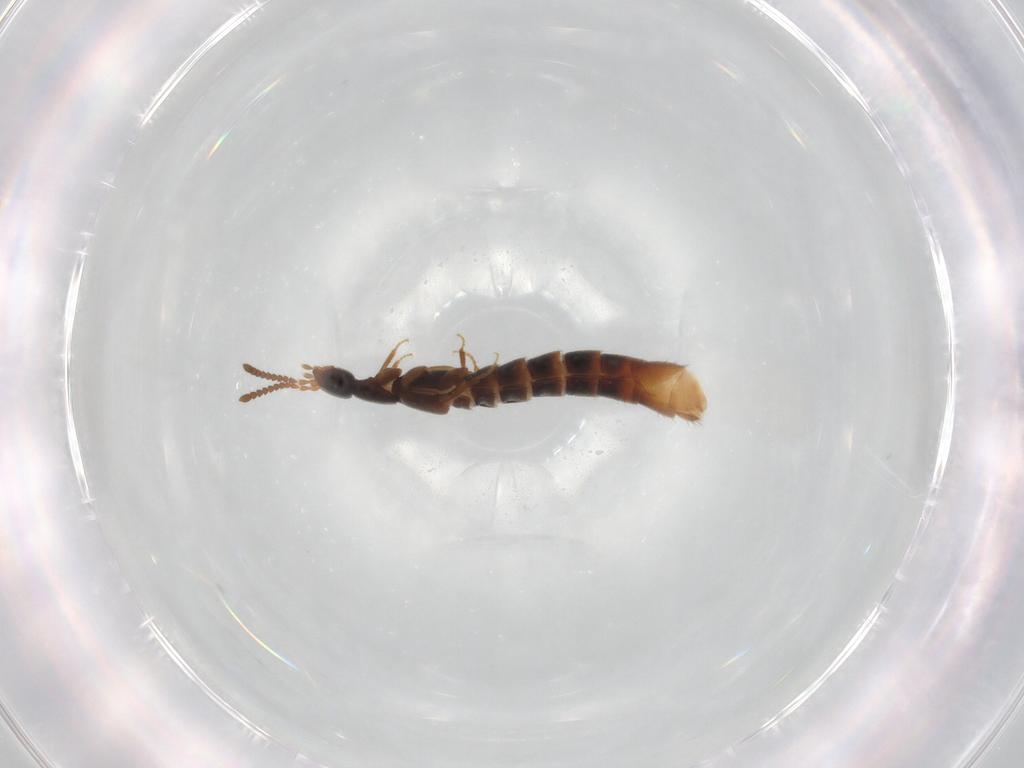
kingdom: Animalia
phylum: Arthropoda
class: Insecta
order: Coleoptera
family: Staphylinidae
